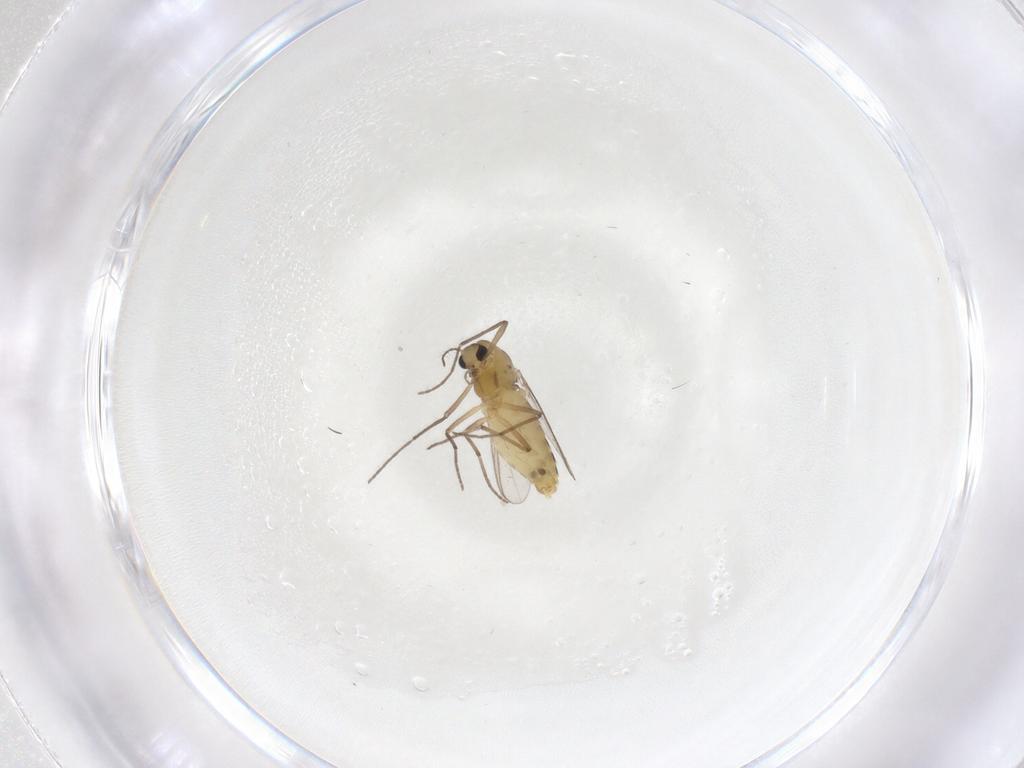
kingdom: Animalia
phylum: Arthropoda
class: Insecta
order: Diptera
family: Chironomidae
